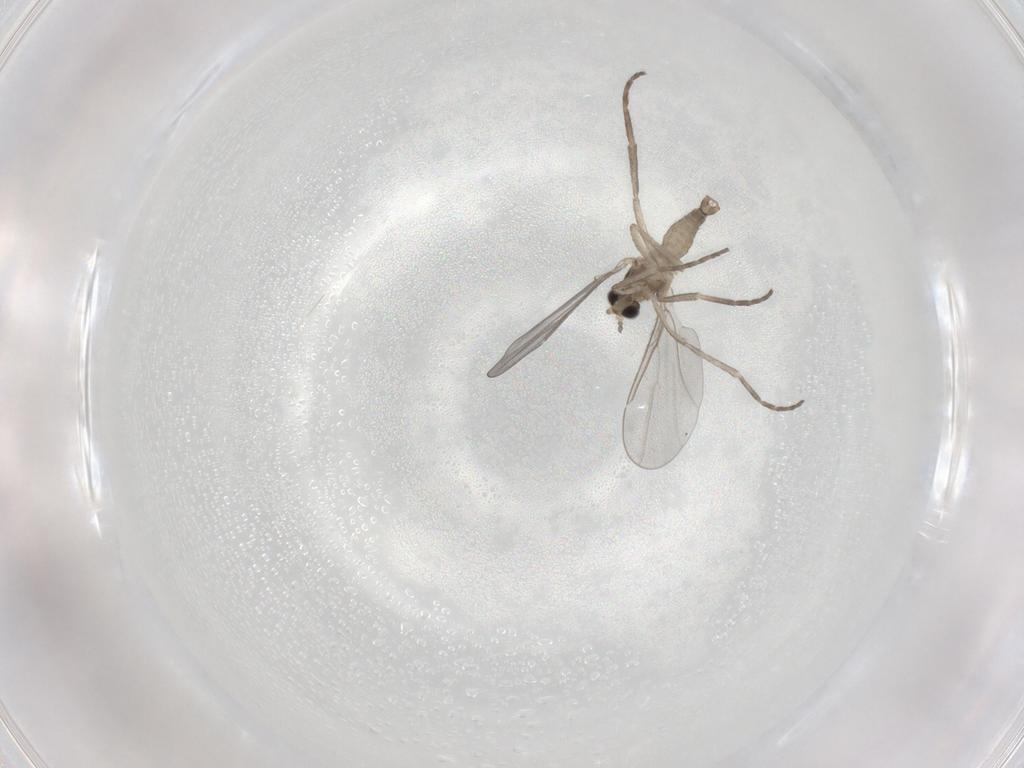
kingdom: Animalia
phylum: Arthropoda
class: Insecta
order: Diptera
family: Cecidomyiidae
